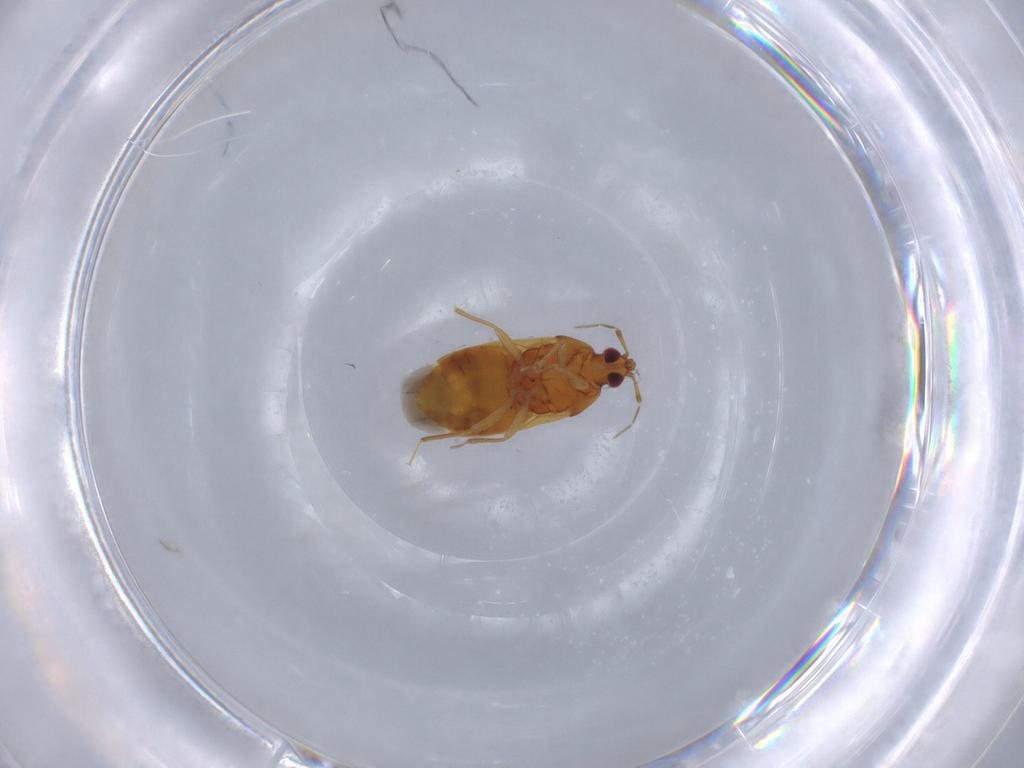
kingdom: Animalia
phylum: Arthropoda
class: Insecta
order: Hemiptera
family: Anthocoridae
